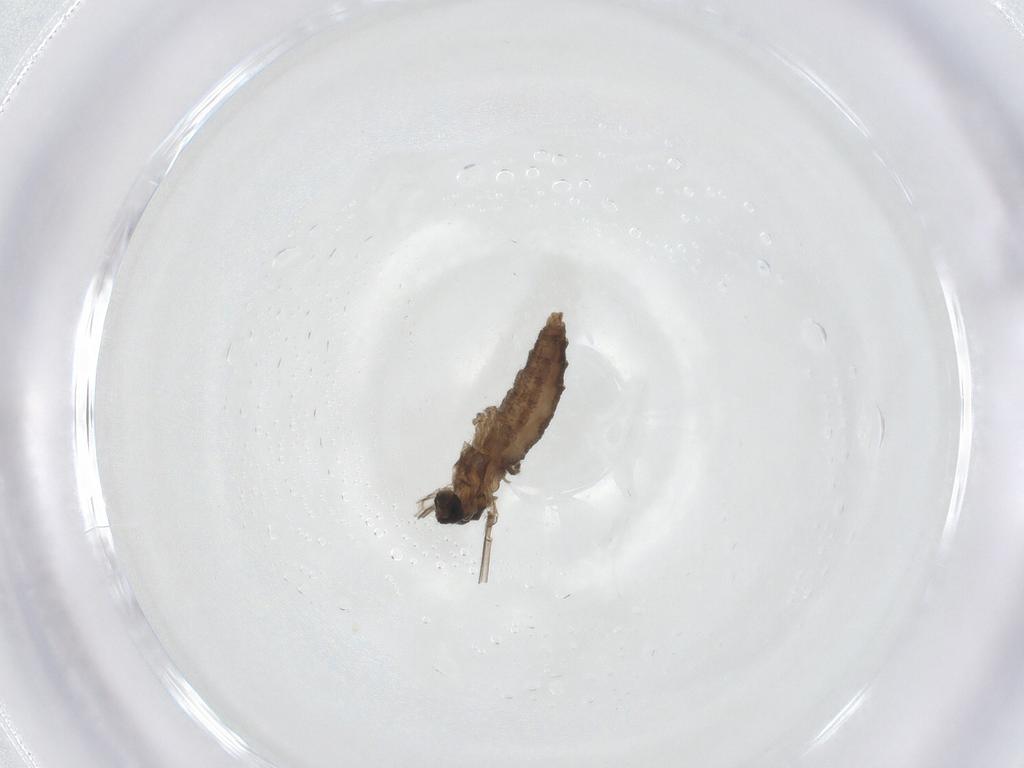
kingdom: Animalia
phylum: Arthropoda
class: Insecta
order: Diptera
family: Cecidomyiidae
